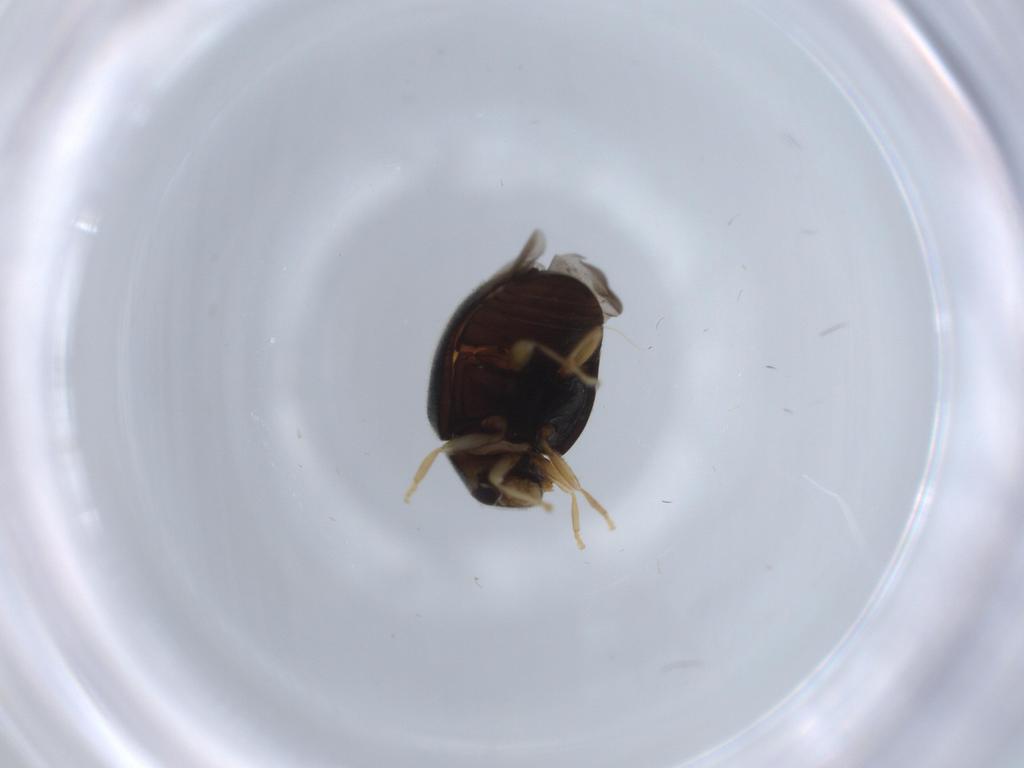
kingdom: Animalia
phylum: Arthropoda
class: Insecta
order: Coleoptera
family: Coccinellidae
